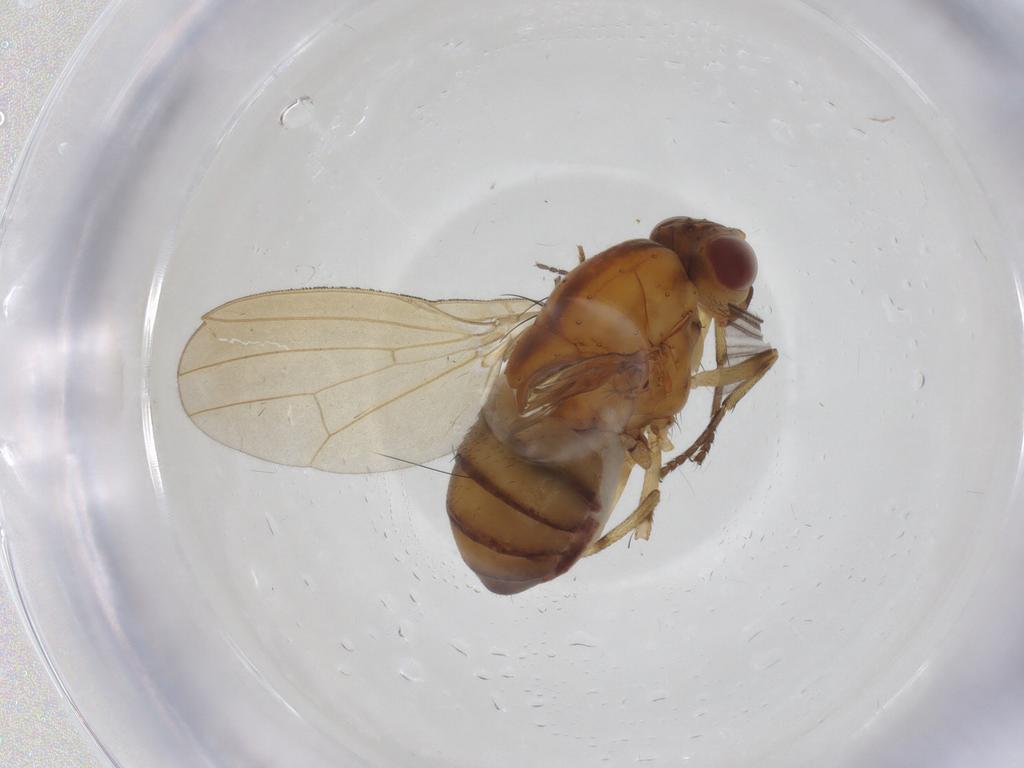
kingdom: Animalia
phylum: Arthropoda
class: Insecta
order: Diptera
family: Sciaridae
